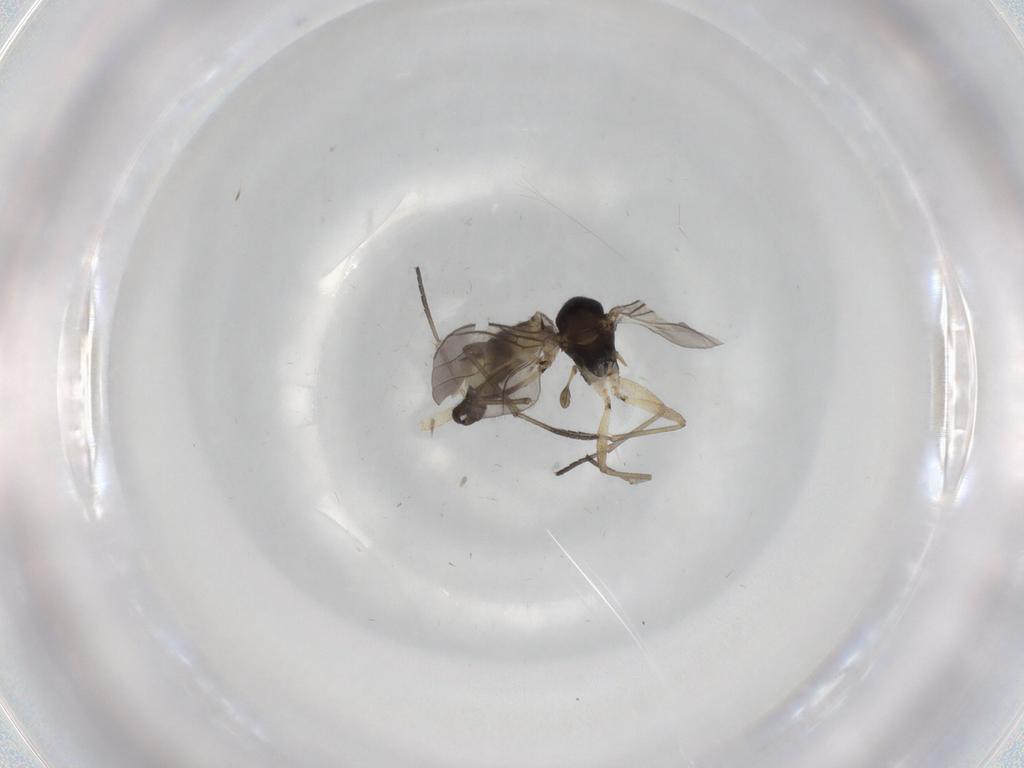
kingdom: Animalia
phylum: Arthropoda
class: Insecta
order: Diptera
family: Sciaridae
